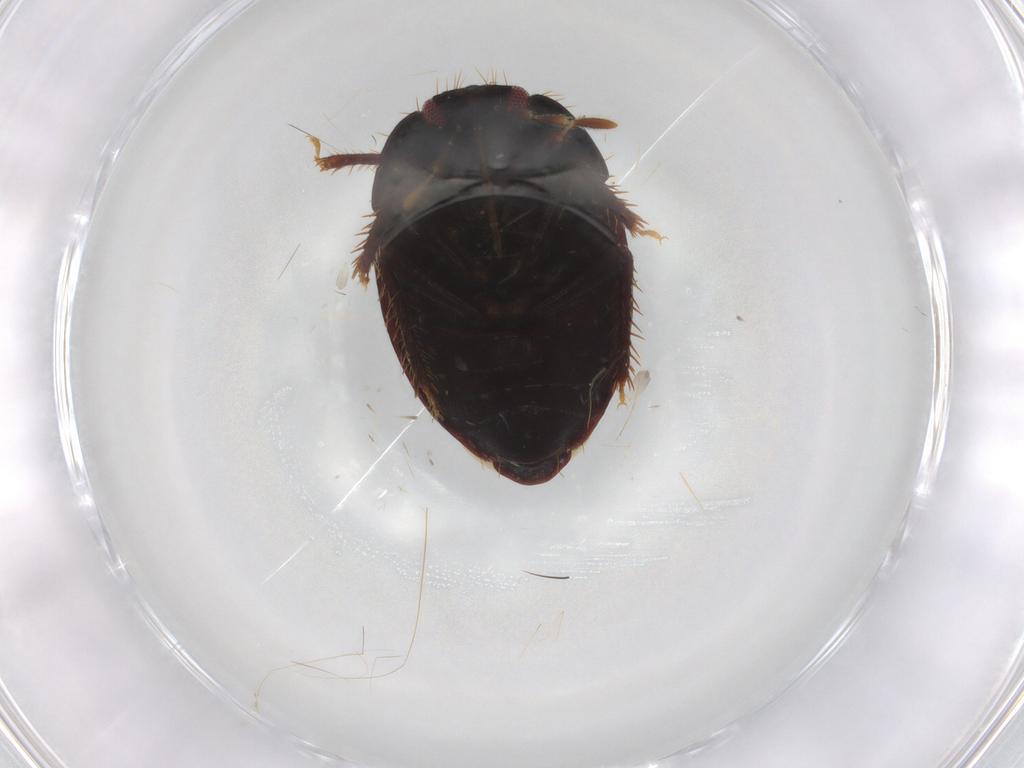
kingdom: Animalia
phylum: Arthropoda
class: Insecta
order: Hemiptera
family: Cydnidae
